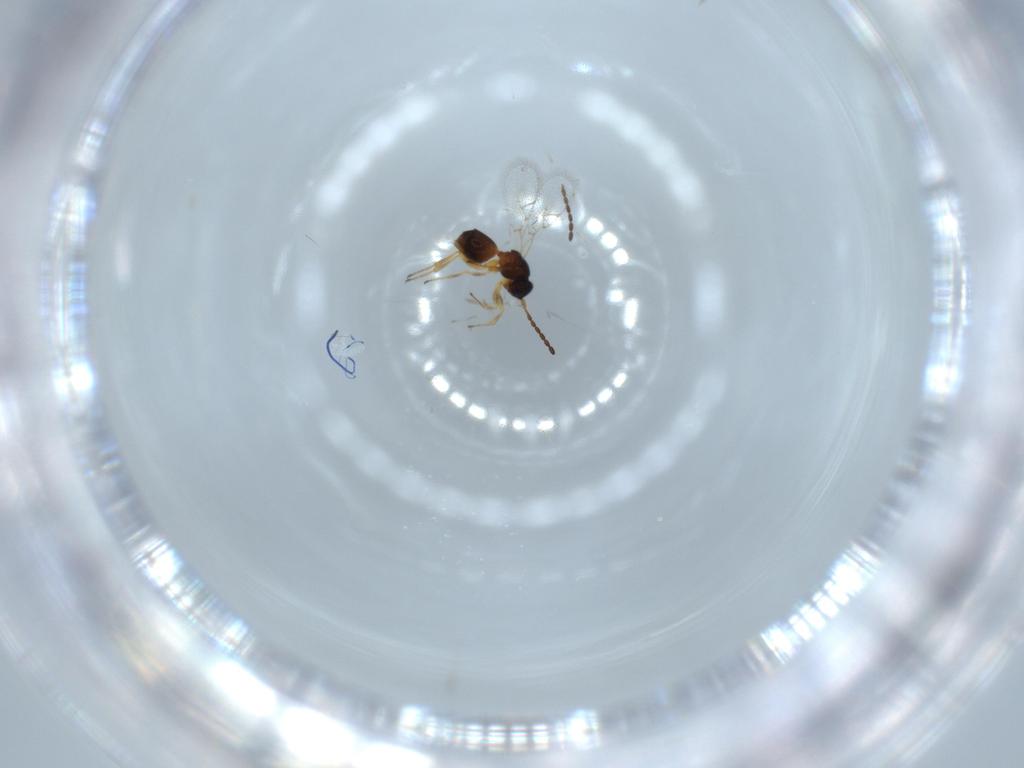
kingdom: Animalia
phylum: Arthropoda
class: Insecta
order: Hymenoptera
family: Figitidae
